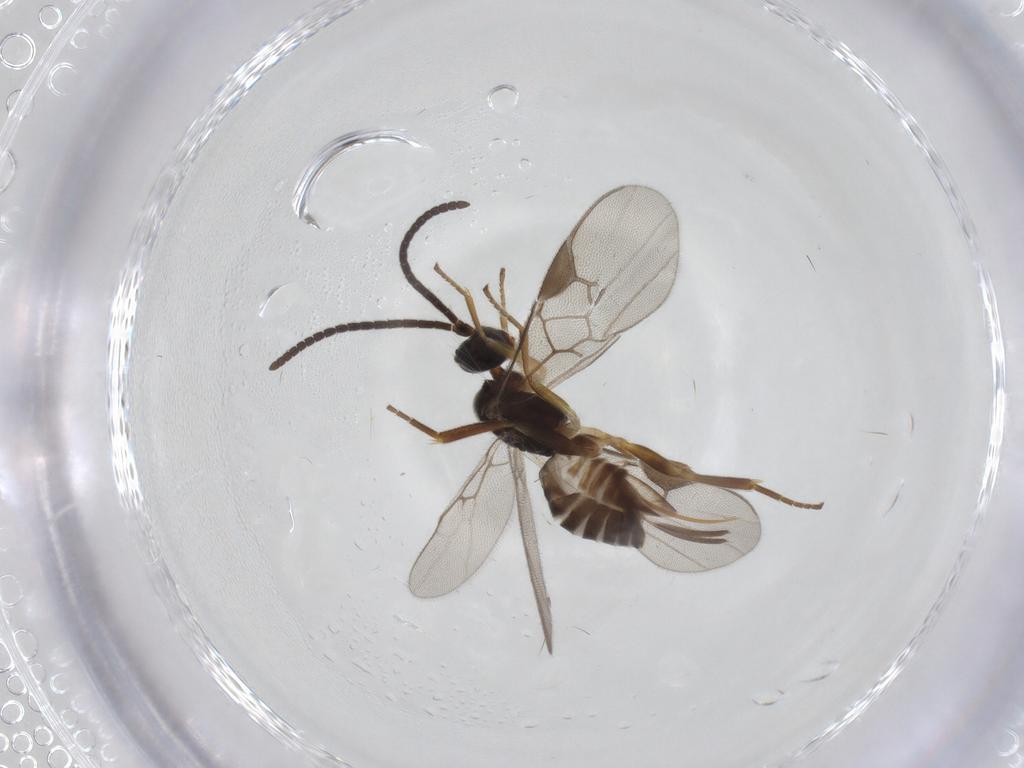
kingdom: Animalia
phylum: Arthropoda
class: Insecta
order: Hymenoptera
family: Braconidae
